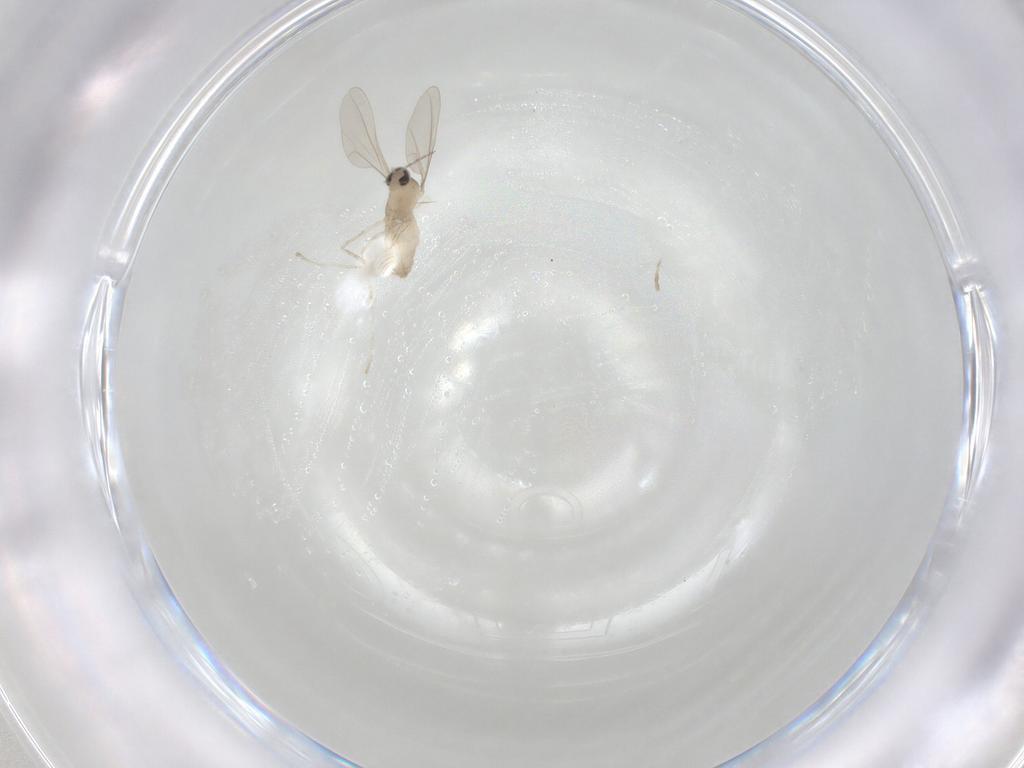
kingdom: Animalia
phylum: Arthropoda
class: Insecta
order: Diptera
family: Cecidomyiidae
